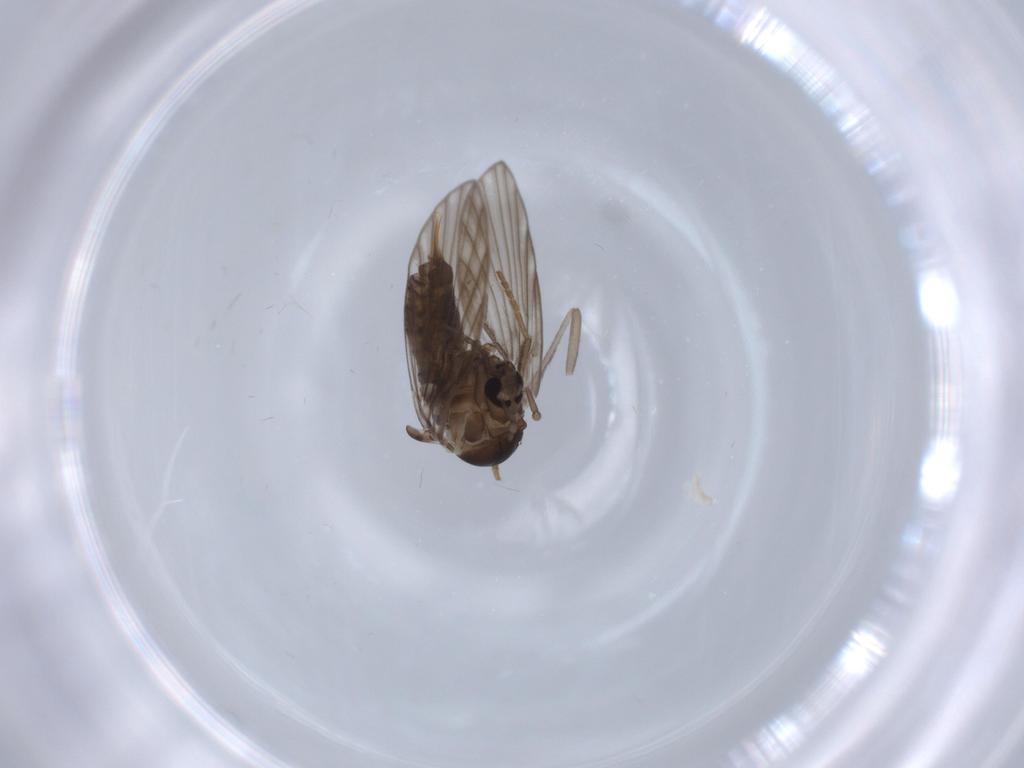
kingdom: Animalia
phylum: Arthropoda
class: Insecta
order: Diptera
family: Psychodidae
